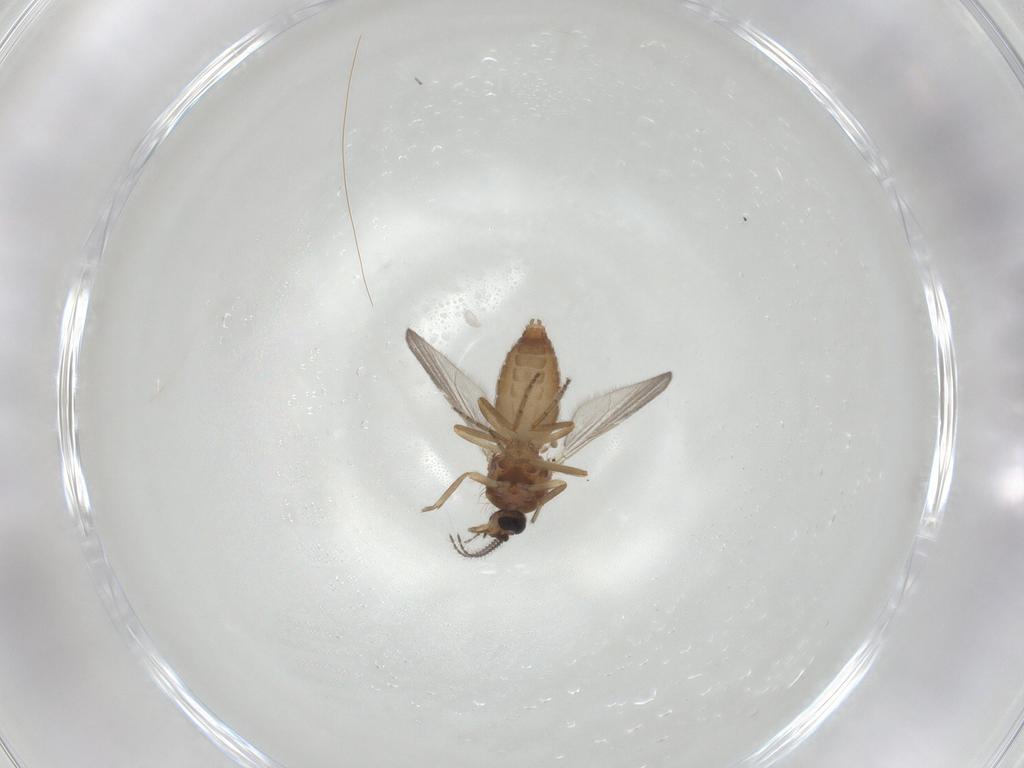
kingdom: Animalia
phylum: Arthropoda
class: Insecta
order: Diptera
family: Ceratopogonidae
